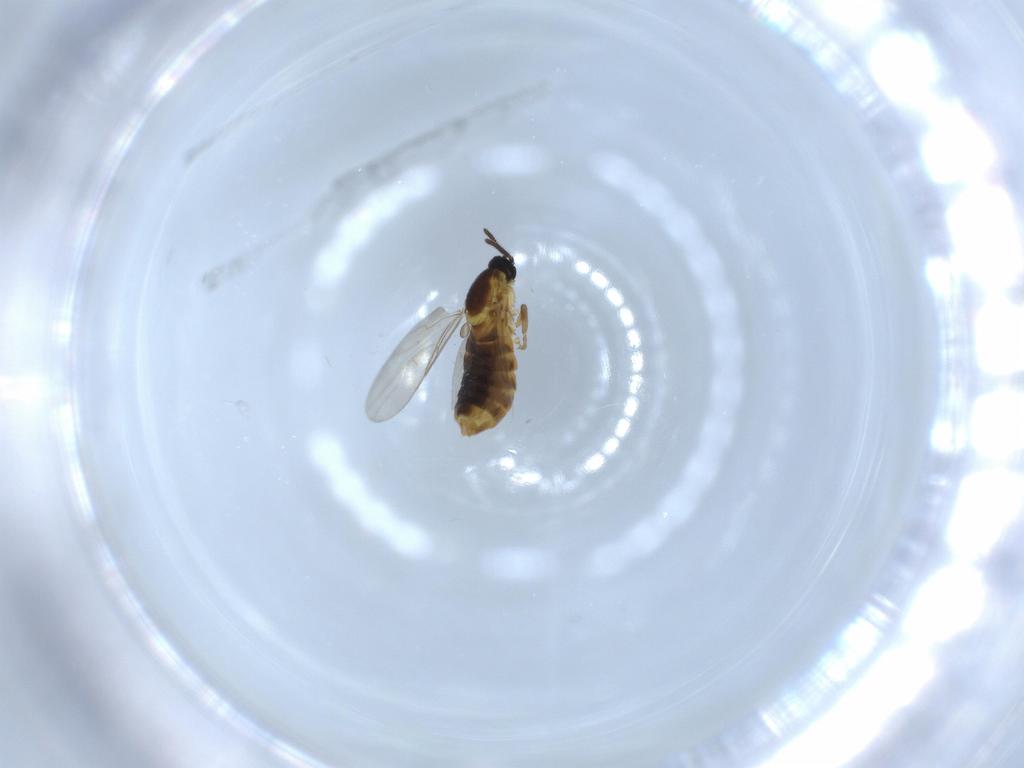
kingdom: Animalia
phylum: Arthropoda
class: Insecta
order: Diptera
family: Scatopsidae
